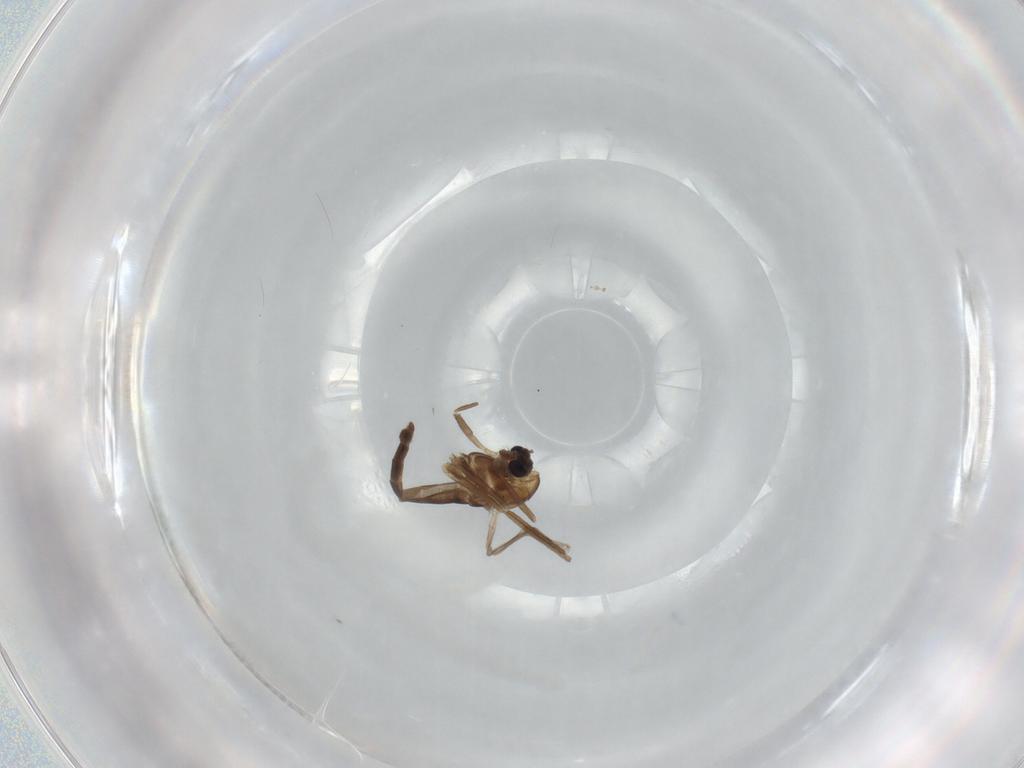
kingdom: Animalia
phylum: Arthropoda
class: Insecta
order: Diptera
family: Chironomidae
